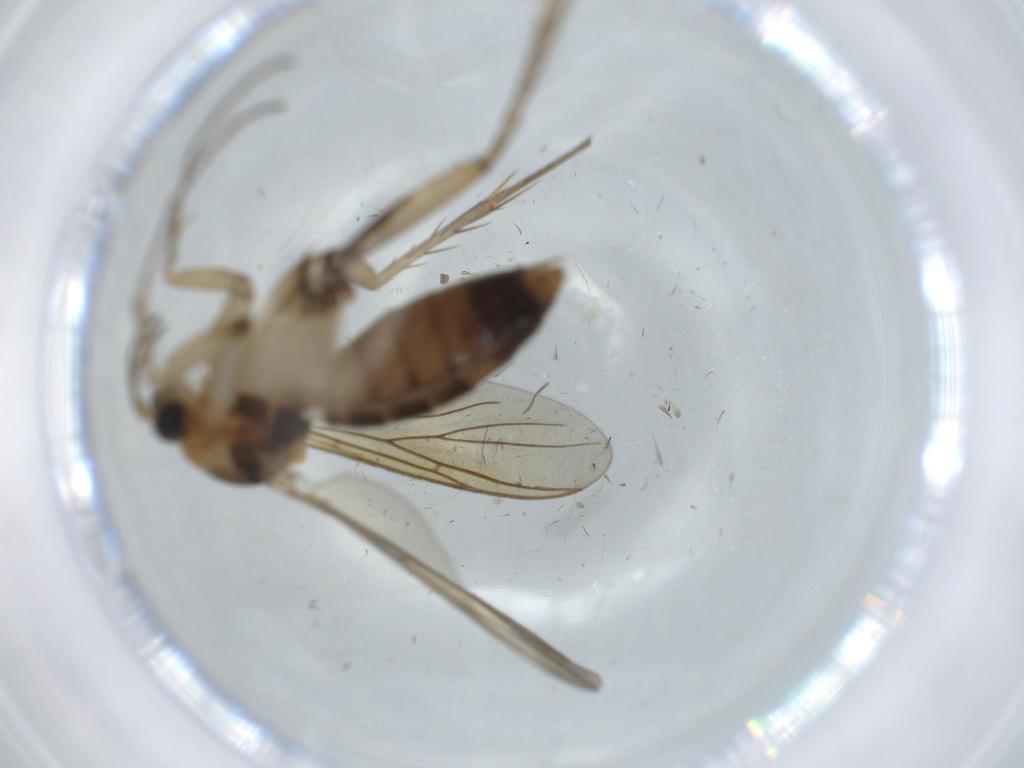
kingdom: Animalia
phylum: Arthropoda
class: Insecta
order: Diptera
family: Mycetophilidae
